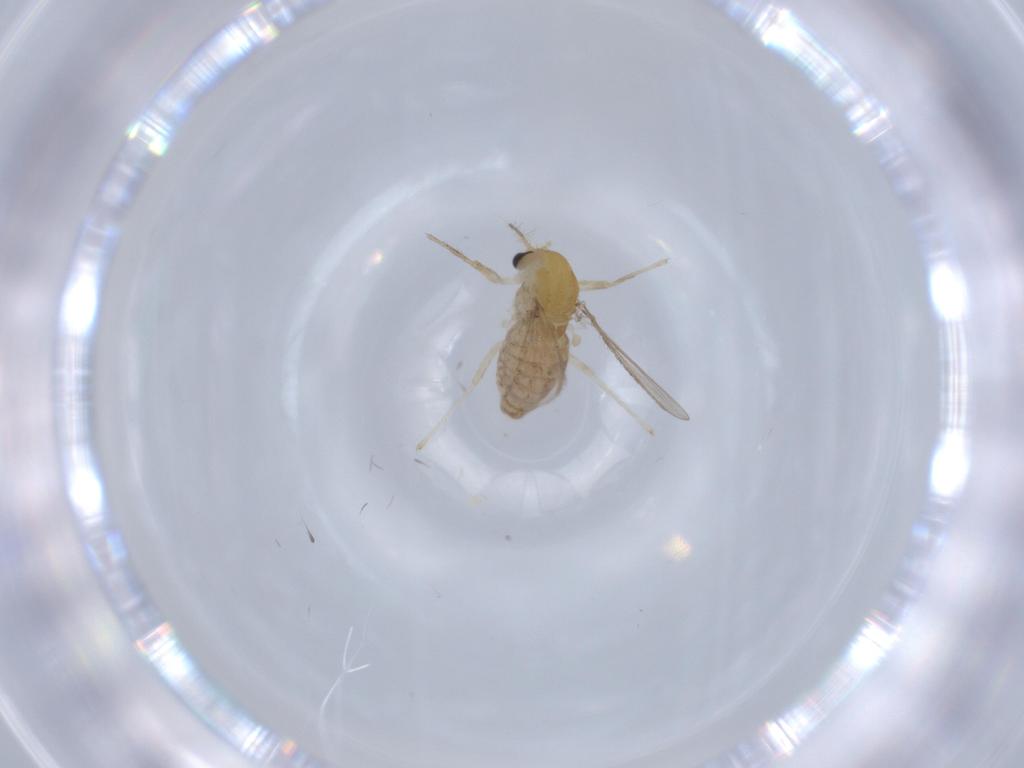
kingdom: Animalia
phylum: Arthropoda
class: Insecta
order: Diptera
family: Chironomidae
